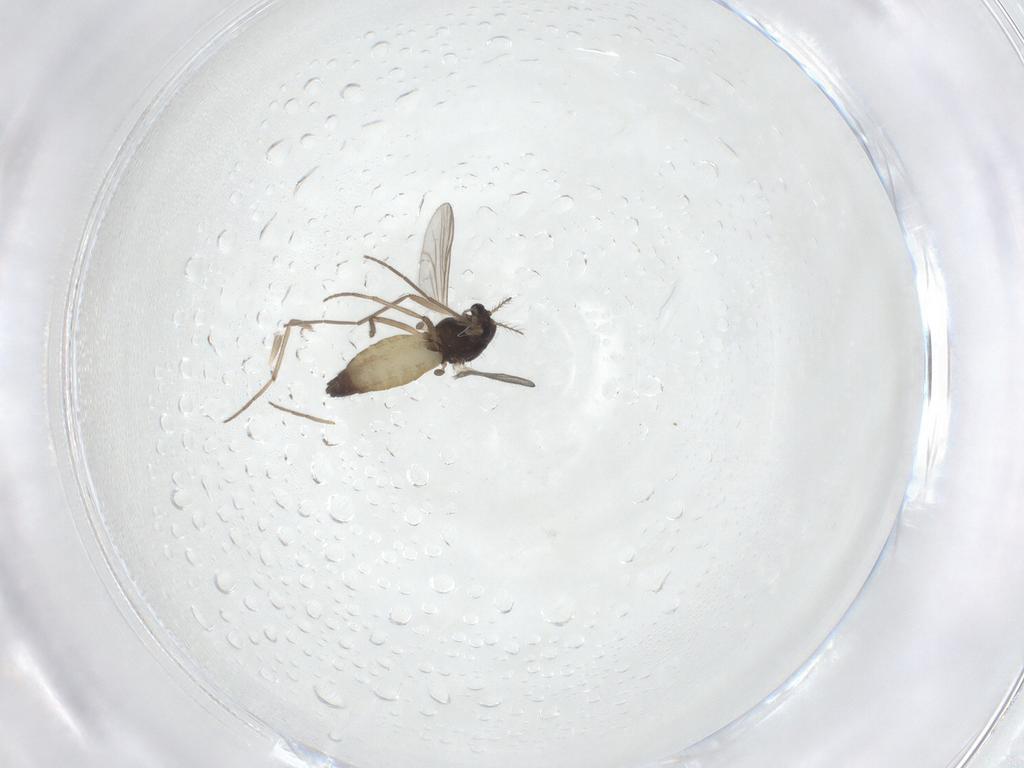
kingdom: Animalia
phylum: Arthropoda
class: Insecta
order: Diptera
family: Chironomidae
